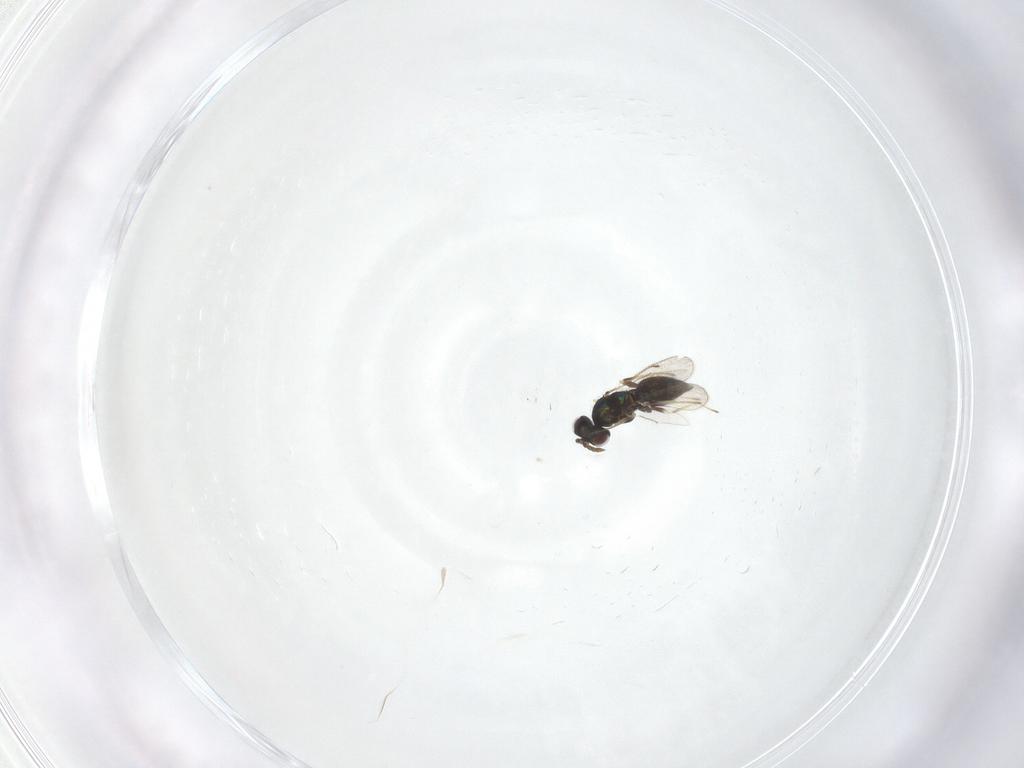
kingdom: Animalia
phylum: Arthropoda
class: Insecta
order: Hymenoptera
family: Eulophidae
